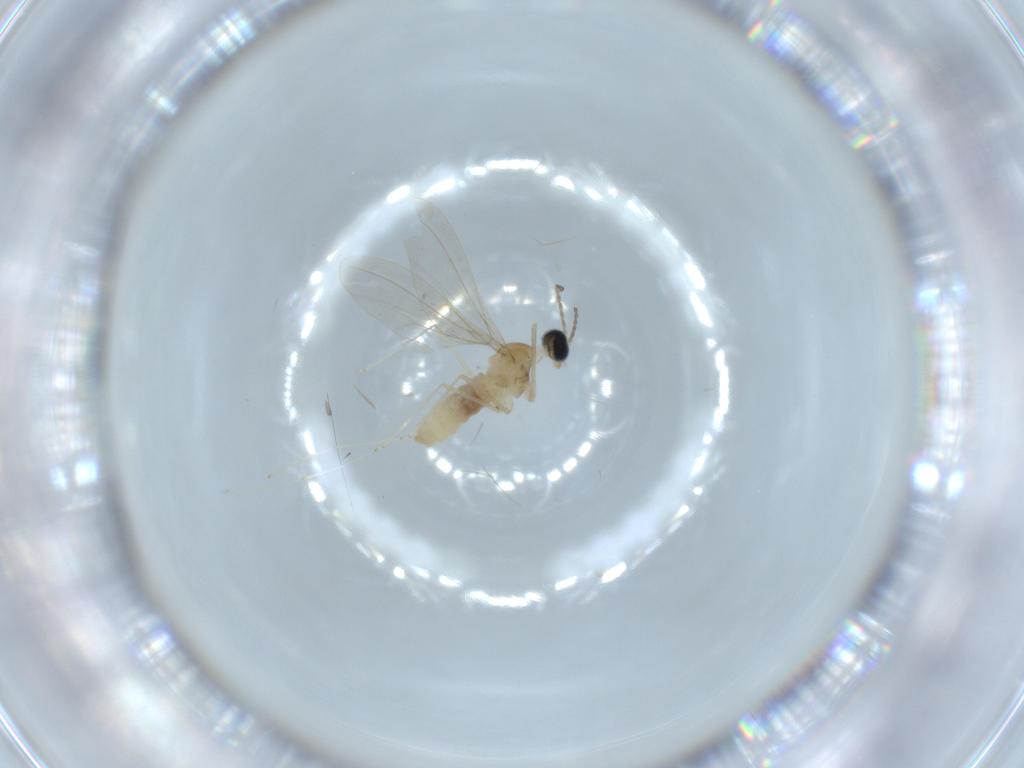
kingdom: Animalia
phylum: Arthropoda
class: Insecta
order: Diptera
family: Cecidomyiidae
